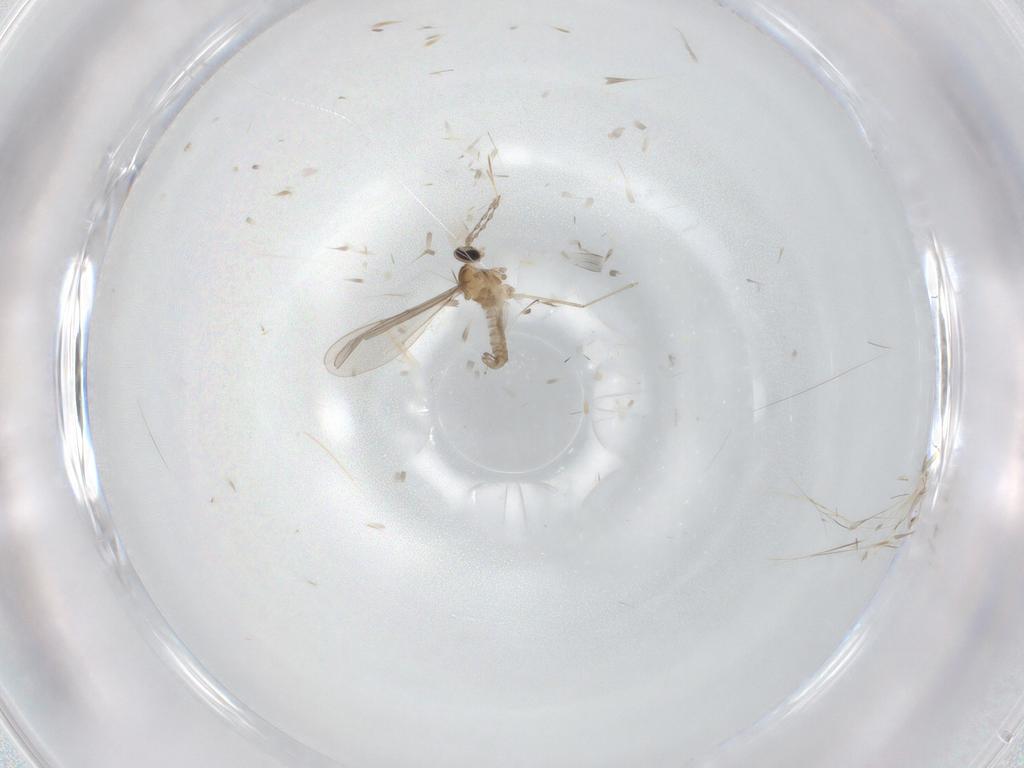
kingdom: Animalia
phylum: Arthropoda
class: Insecta
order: Diptera
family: Cecidomyiidae
